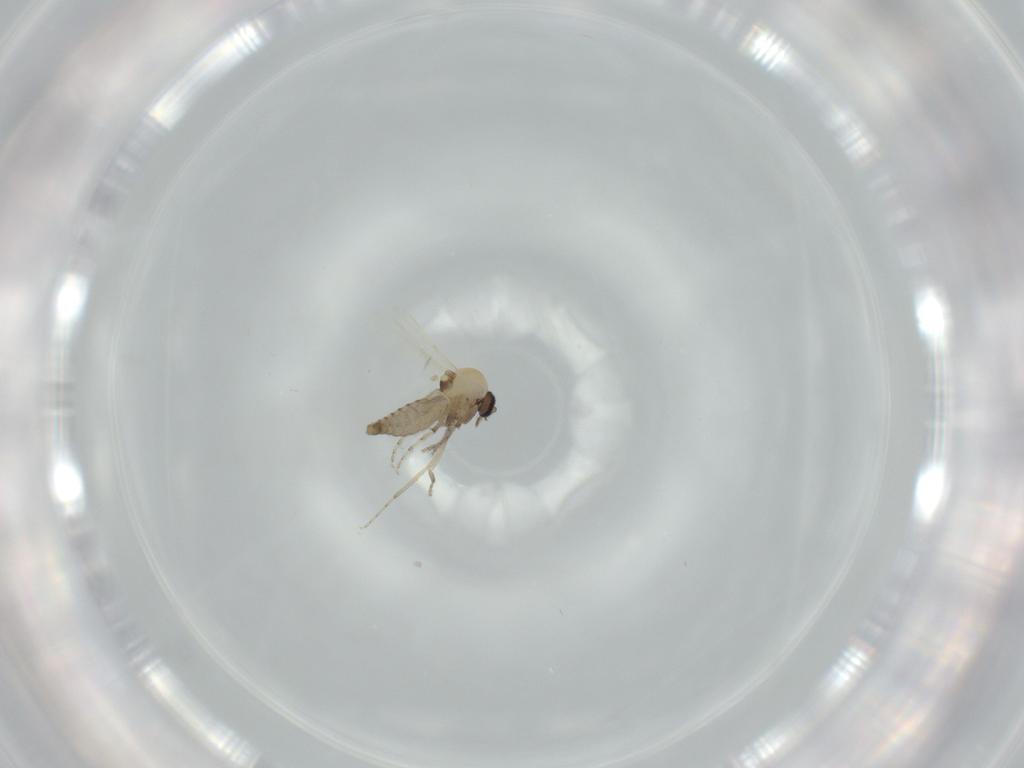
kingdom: Animalia
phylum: Arthropoda
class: Insecta
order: Diptera
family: Ceratopogonidae
